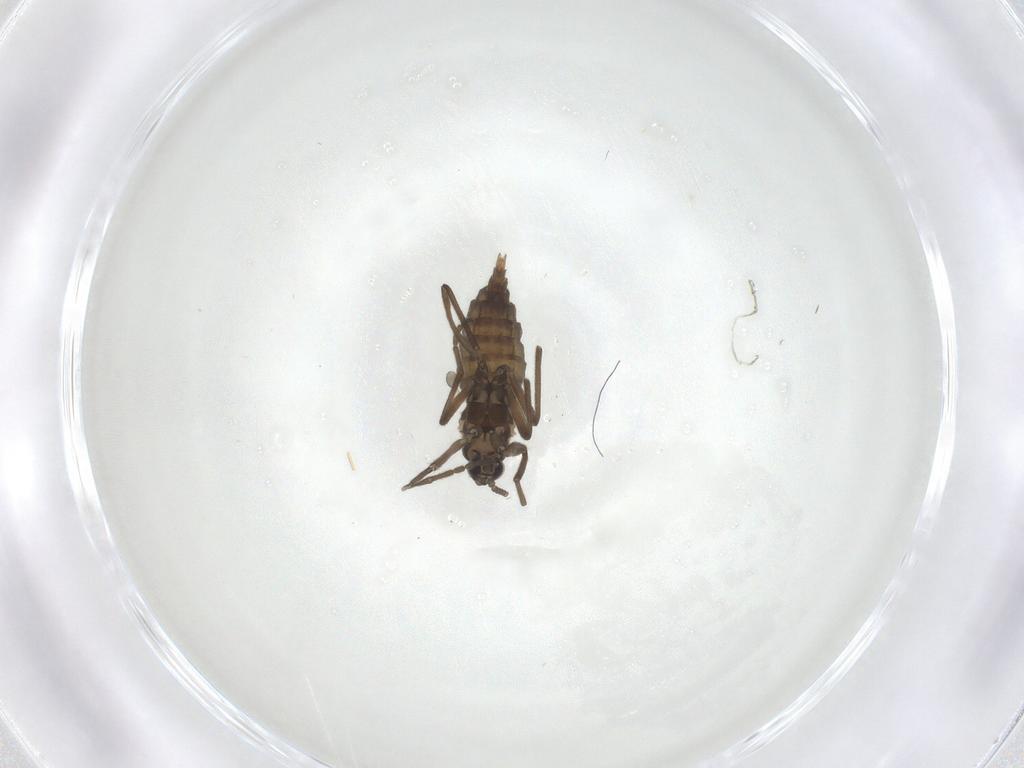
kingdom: Animalia
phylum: Arthropoda
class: Insecta
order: Diptera
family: Cecidomyiidae
